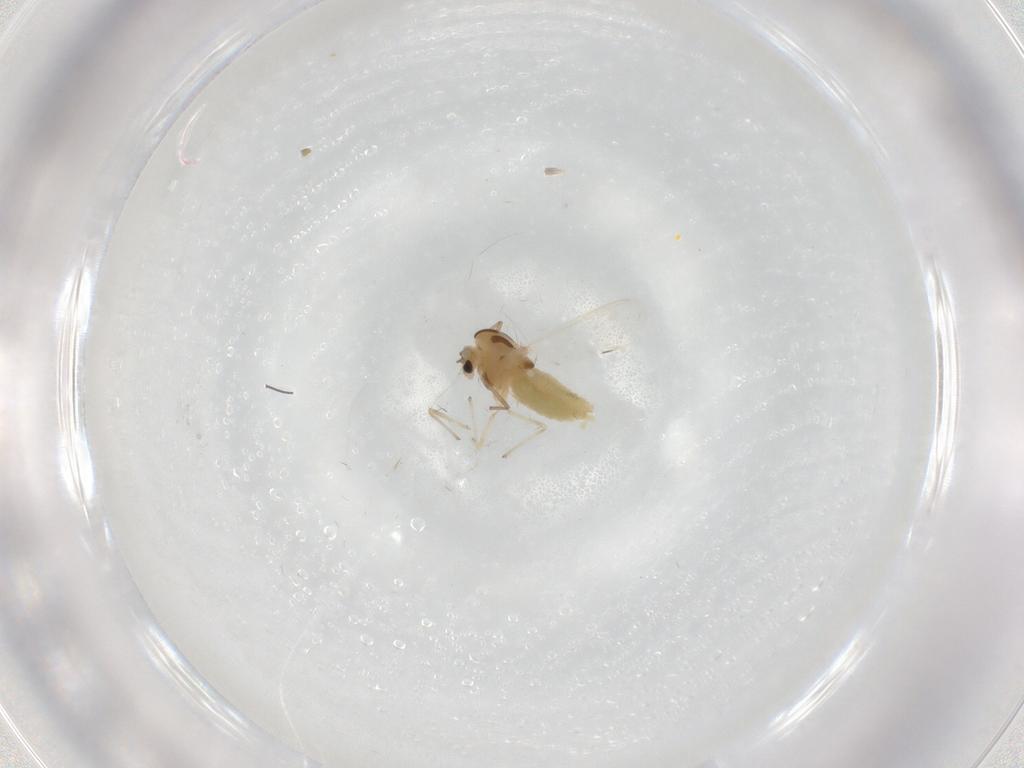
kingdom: Animalia
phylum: Arthropoda
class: Insecta
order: Diptera
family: Chironomidae
